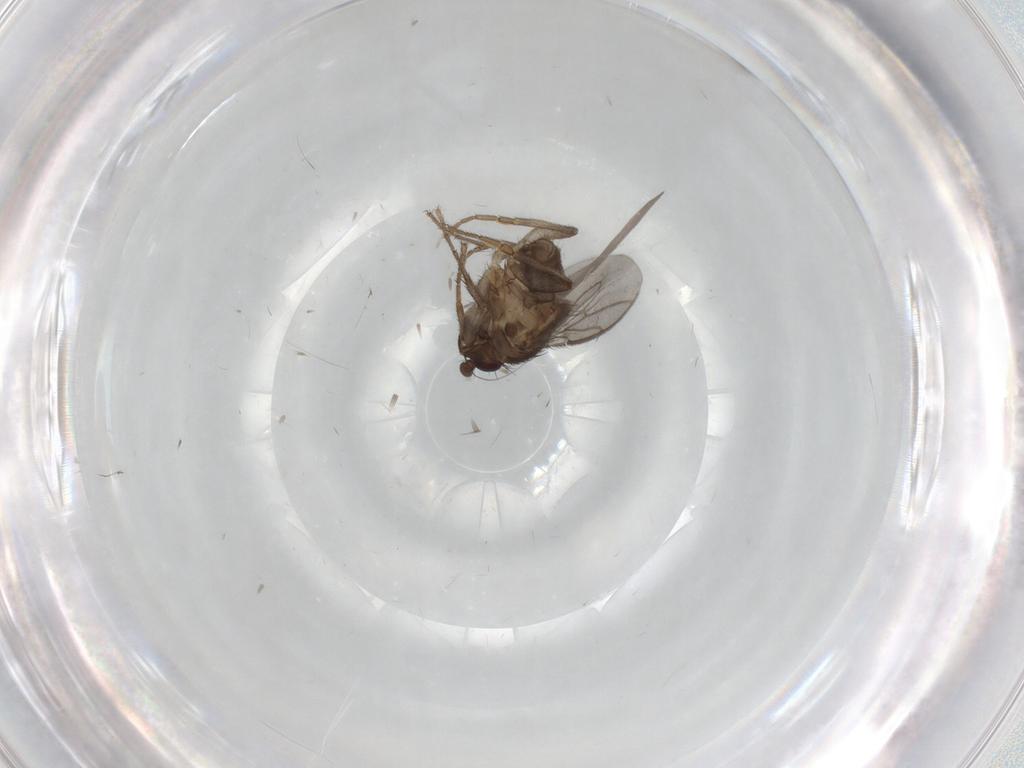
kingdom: Animalia
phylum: Arthropoda
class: Insecta
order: Diptera
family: Sphaeroceridae
